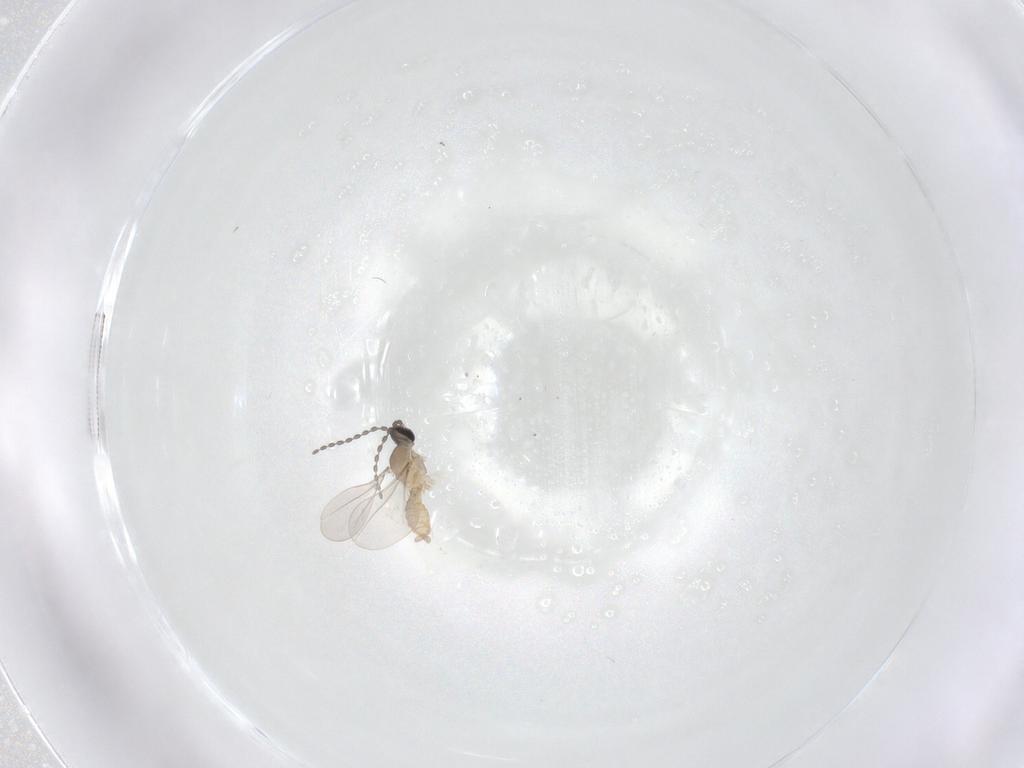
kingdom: Animalia
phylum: Arthropoda
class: Insecta
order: Diptera
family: Cecidomyiidae
